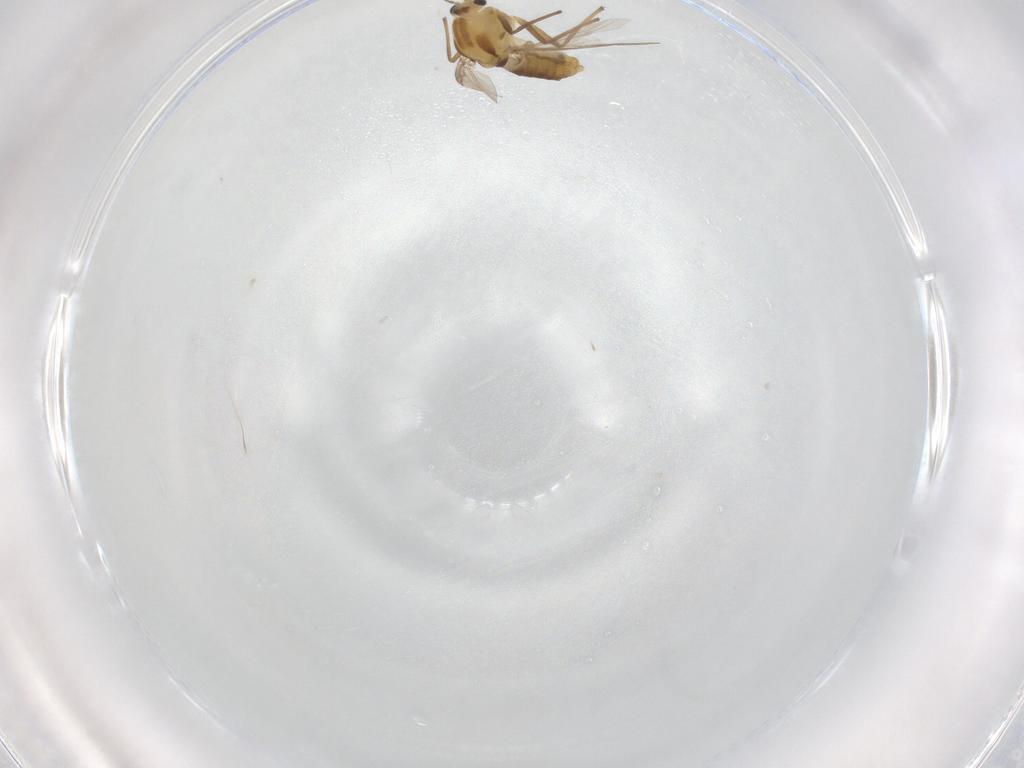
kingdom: Animalia
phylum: Arthropoda
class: Insecta
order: Diptera
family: Chironomidae
